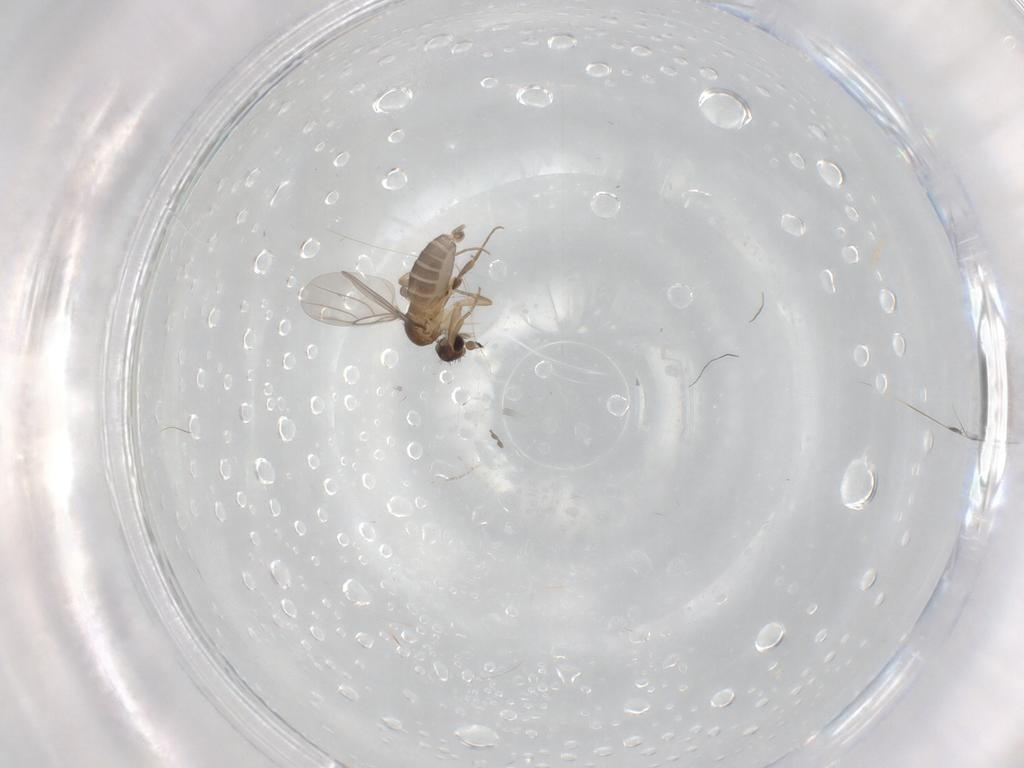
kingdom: Animalia
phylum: Arthropoda
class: Insecta
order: Diptera
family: Cecidomyiidae
